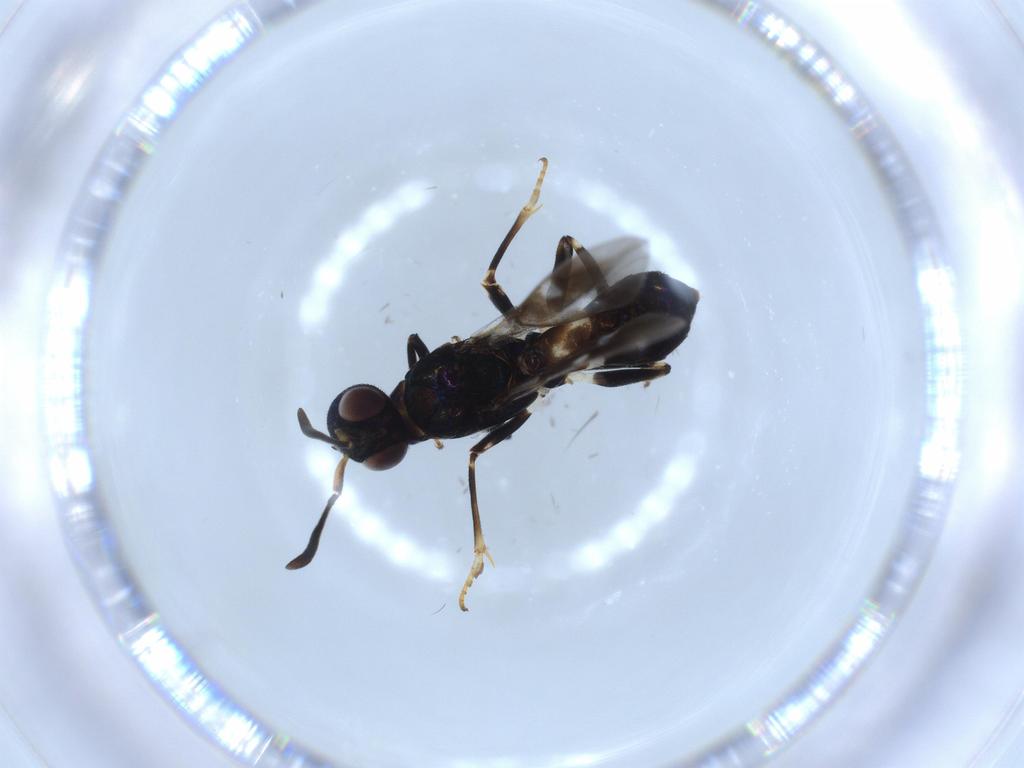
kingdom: Animalia
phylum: Arthropoda
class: Insecta
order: Hymenoptera
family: Eupelmidae
